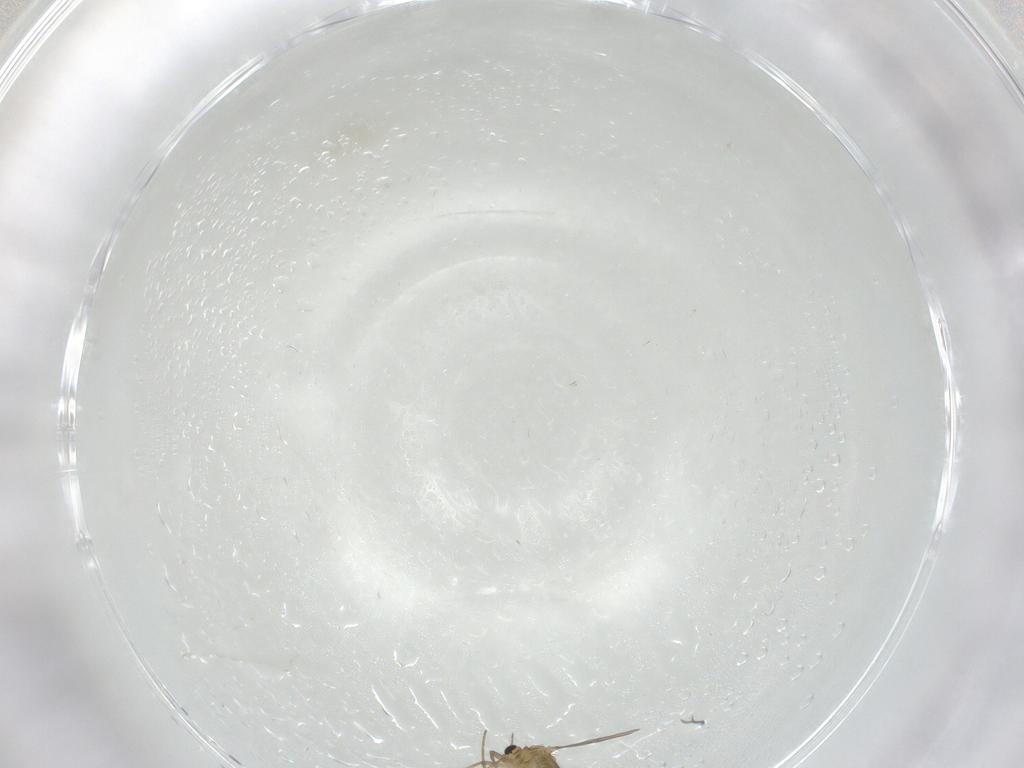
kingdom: Animalia
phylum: Arthropoda
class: Insecta
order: Diptera
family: Chironomidae
